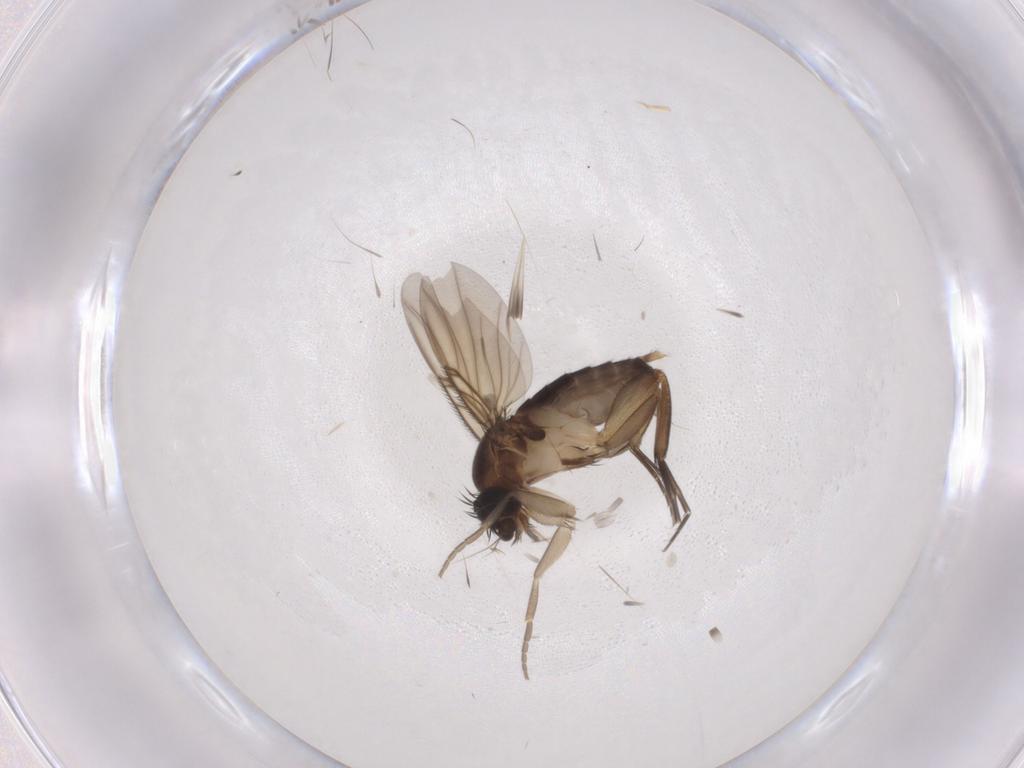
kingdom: Animalia
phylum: Arthropoda
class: Insecta
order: Diptera
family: Phoridae
